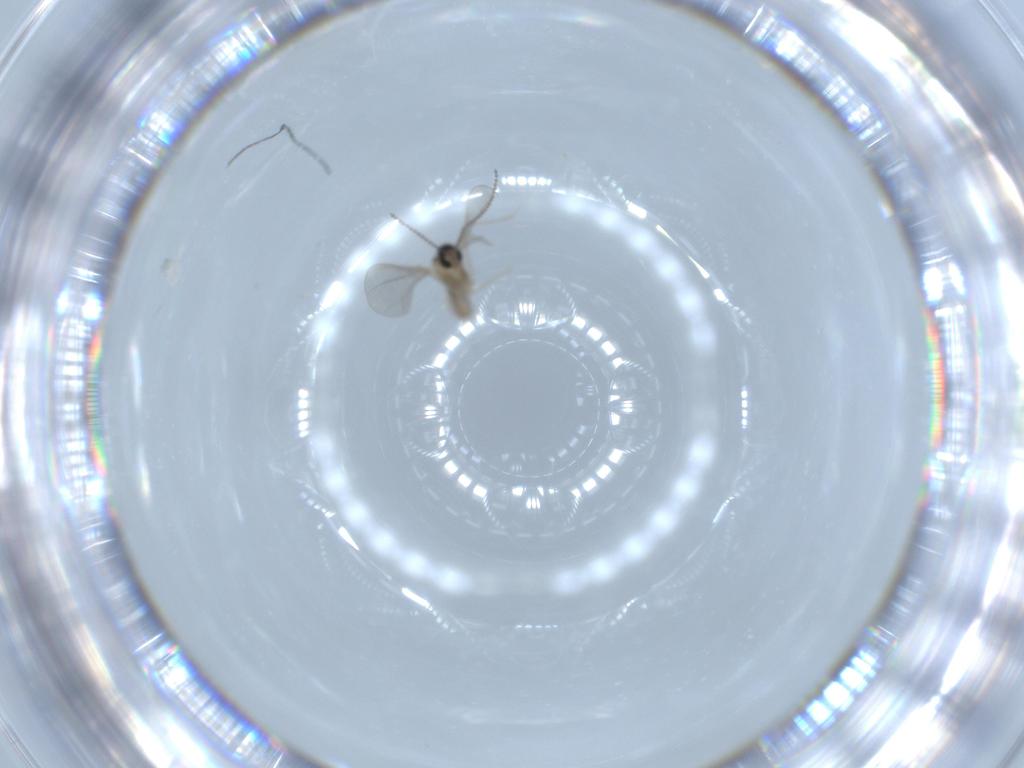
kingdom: Animalia
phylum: Arthropoda
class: Insecta
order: Diptera
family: Cecidomyiidae
